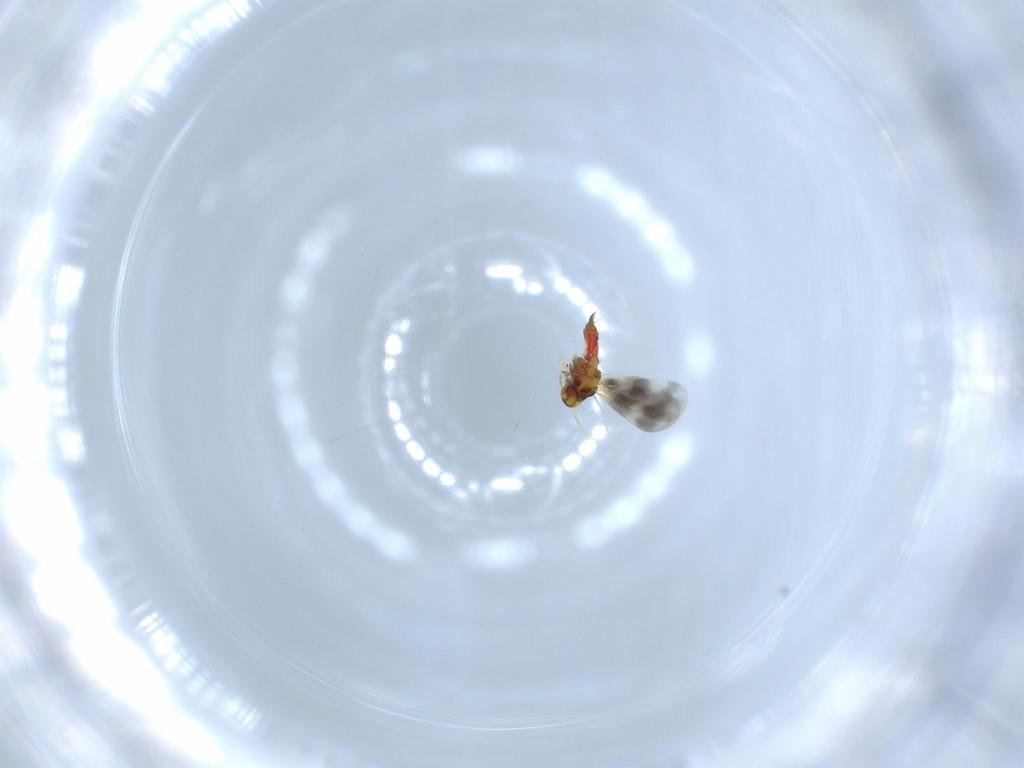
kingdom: Animalia
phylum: Arthropoda
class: Insecta
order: Hemiptera
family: Aleyrodidae
